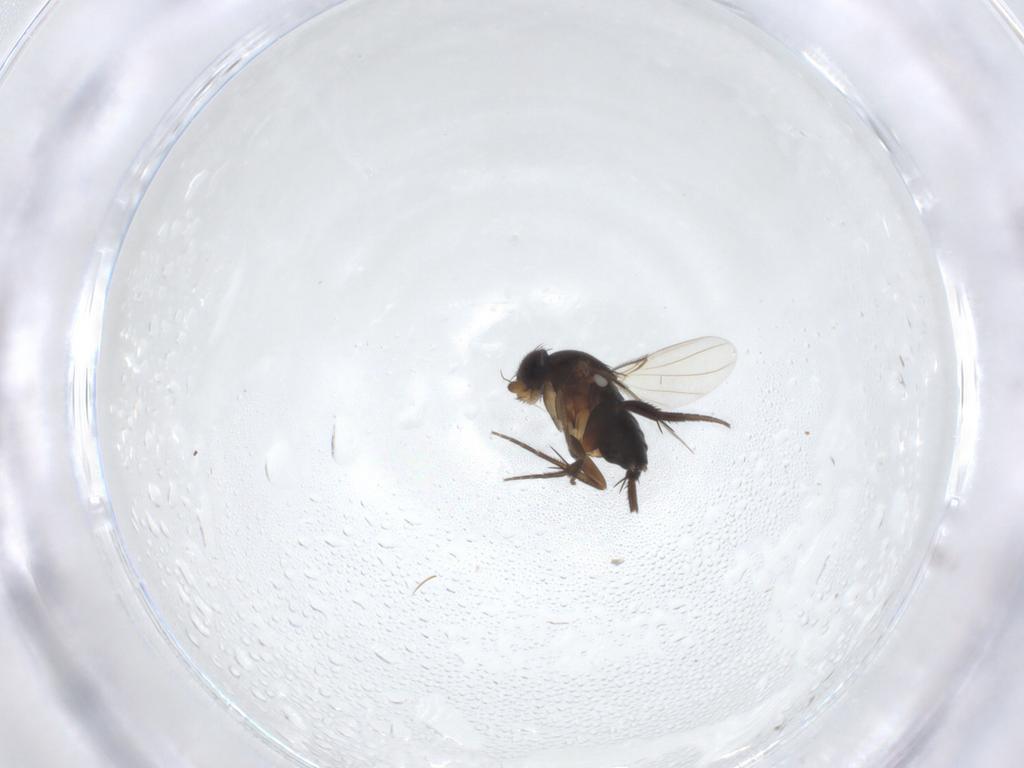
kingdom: Animalia
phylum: Arthropoda
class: Insecta
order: Diptera
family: Phoridae
